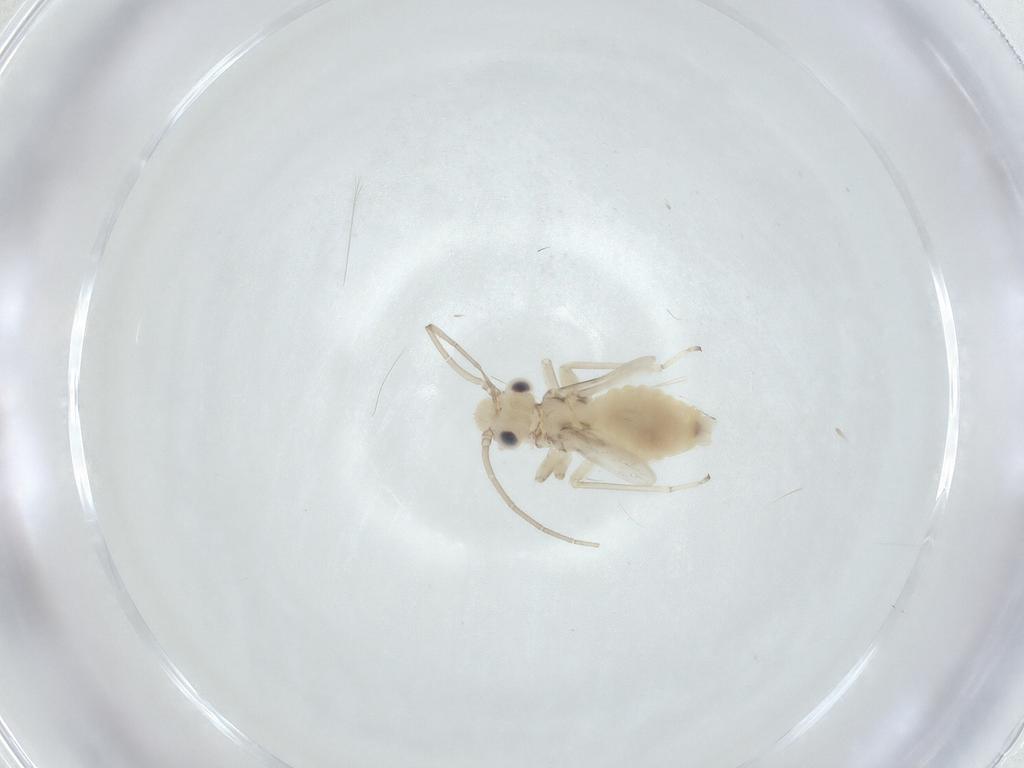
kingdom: Animalia
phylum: Arthropoda
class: Insecta
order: Psocodea
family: Caeciliusidae
